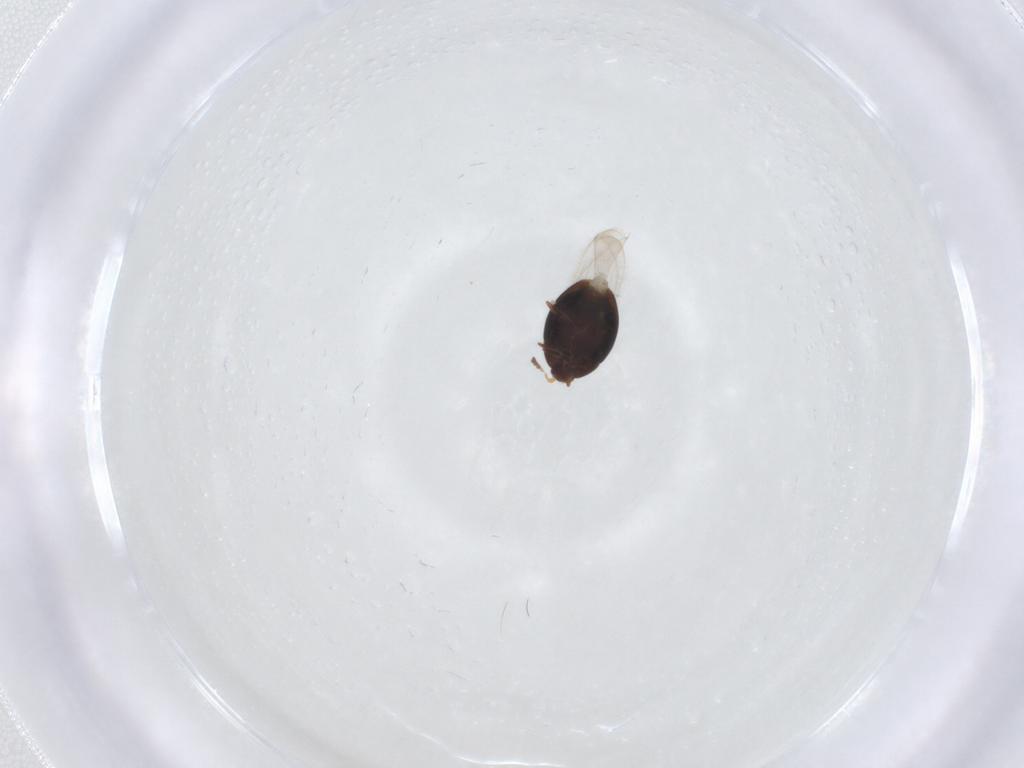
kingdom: Animalia
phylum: Arthropoda
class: Insecta
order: Coleoptera
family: Corylophidae
